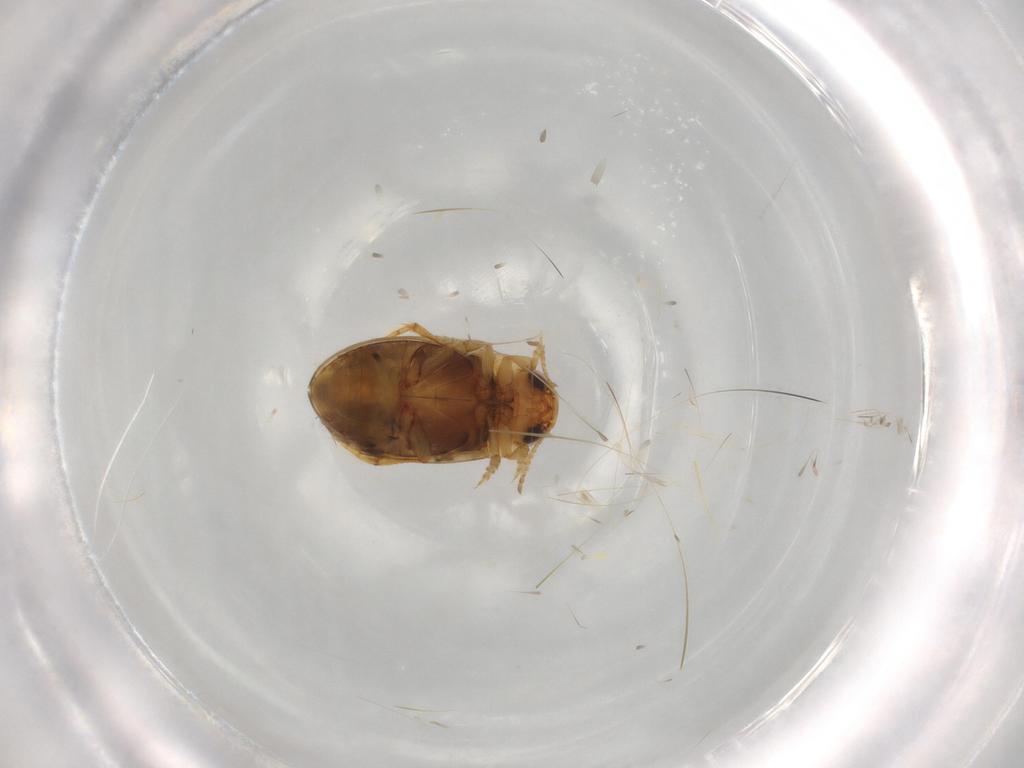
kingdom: Animalia
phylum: Arthropoda
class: Insecta
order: Coleoptera
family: Dytiscidae
